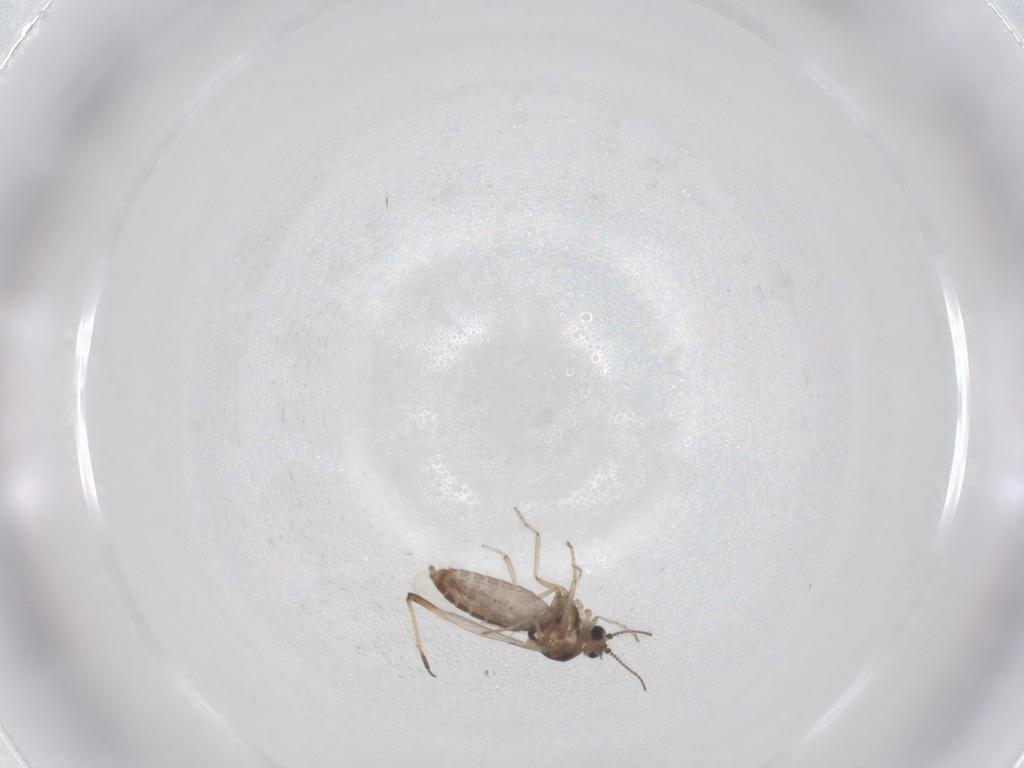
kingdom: Animalia
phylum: Arthropoda
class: Insecta
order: Diptera
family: Ceratopogonidae
